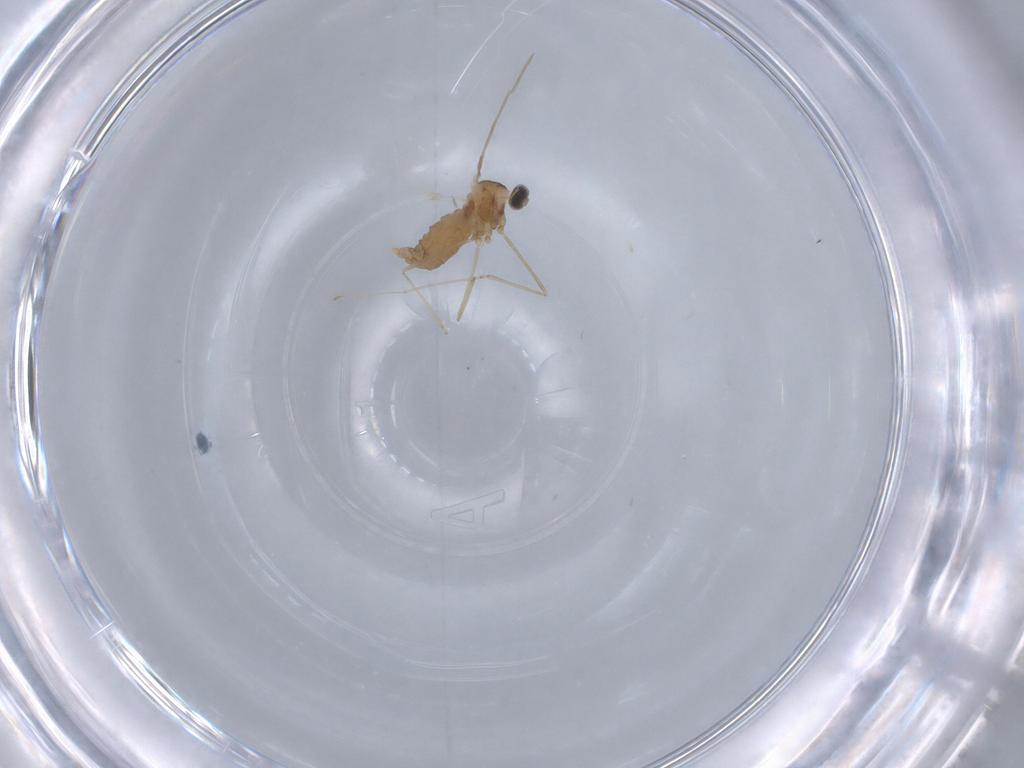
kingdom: Animalia
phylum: Arthropoda
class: Insecta
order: Diptera
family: Cecidomyiidae
